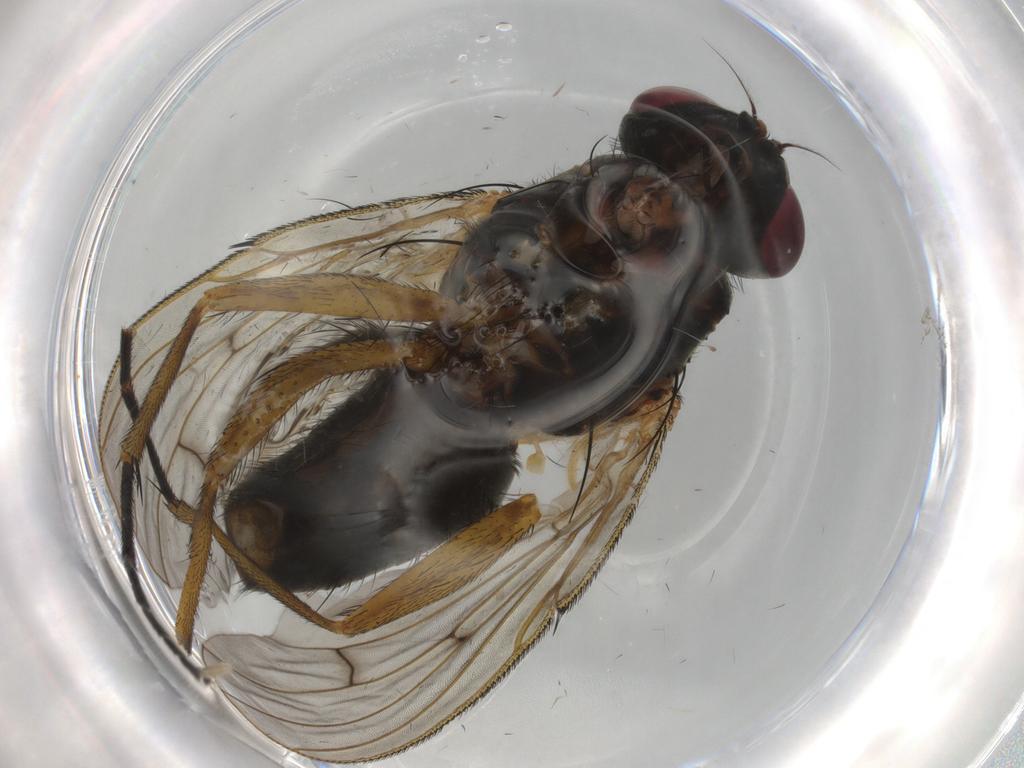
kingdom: Animalia
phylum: Arthropoda
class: Insecta
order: Diptera
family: Muscidae
